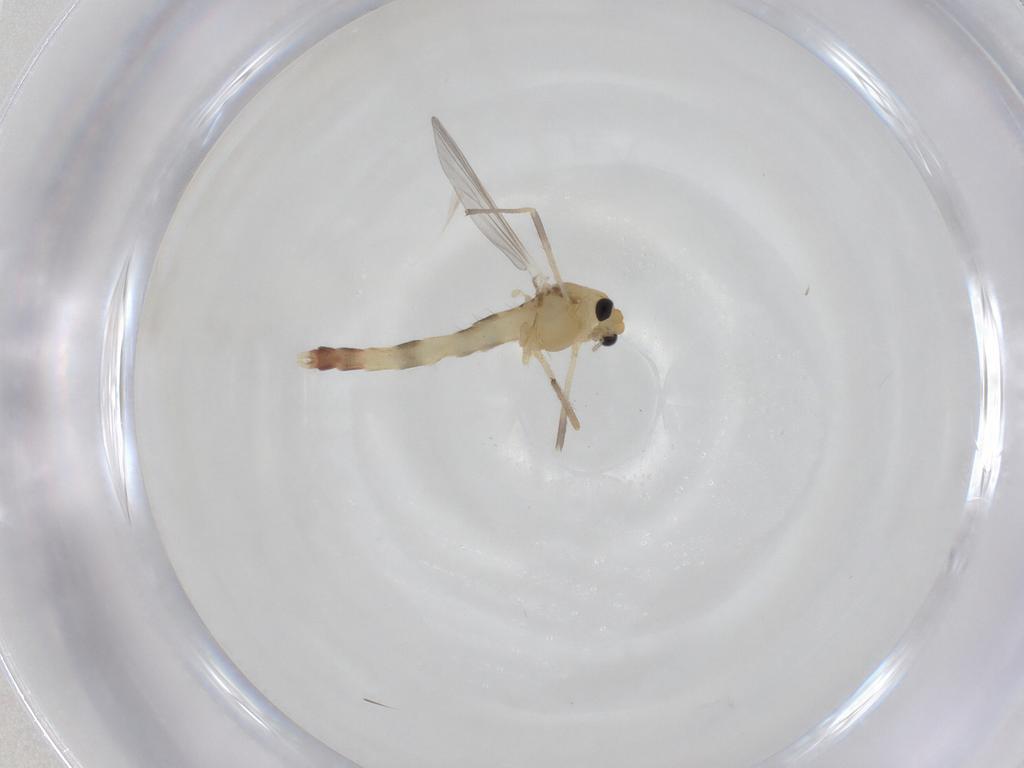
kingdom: Animalia
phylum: Arthropoda
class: Insecta
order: Diptera
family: Chironomidae
